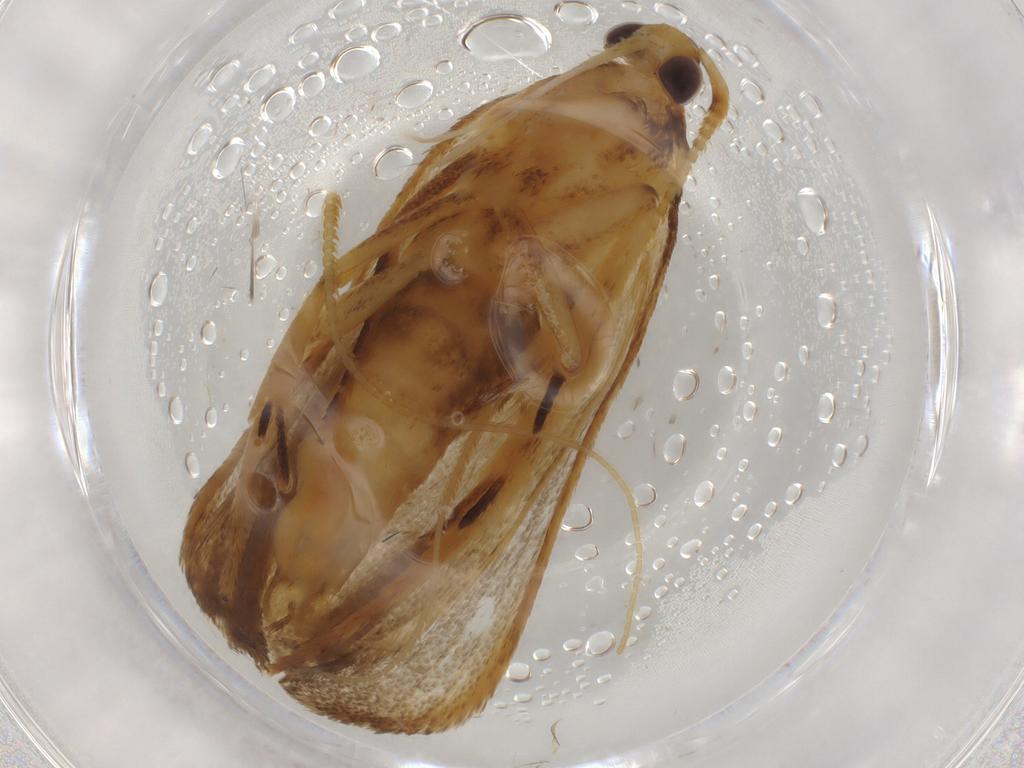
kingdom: Animalia
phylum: Arthropoda
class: Insecta
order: Lepidoptera
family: Lecithoceridae
